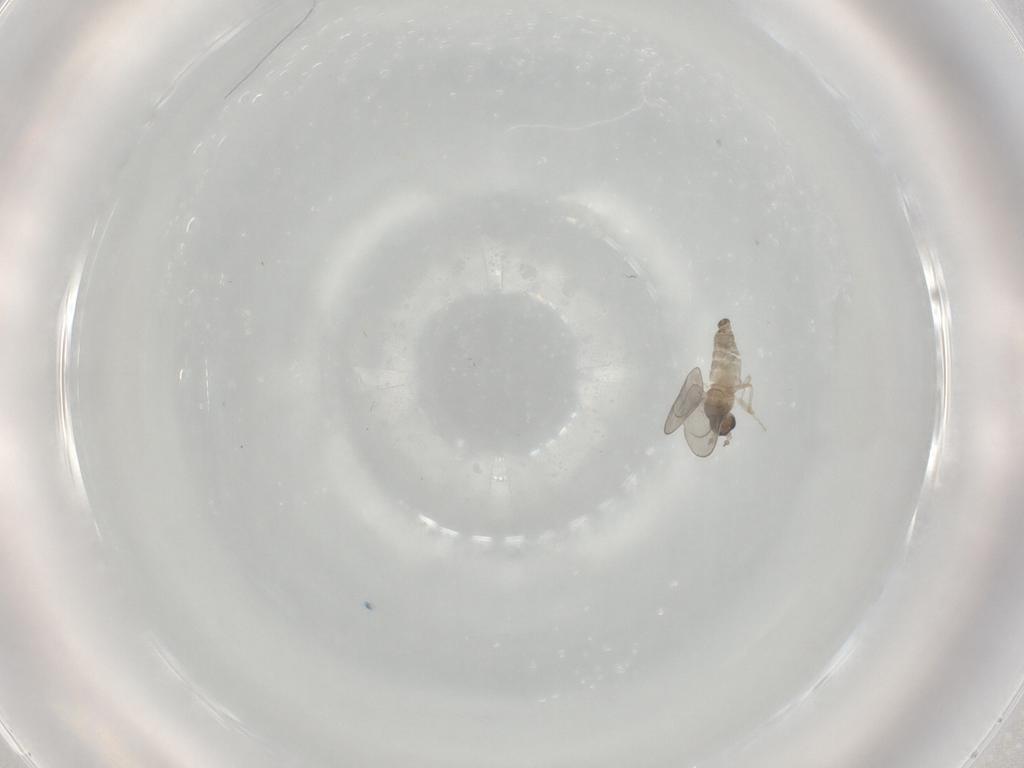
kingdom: Animalia
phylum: Arthropoda
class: Insecta
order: Diptera
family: Cecidomyiidae
